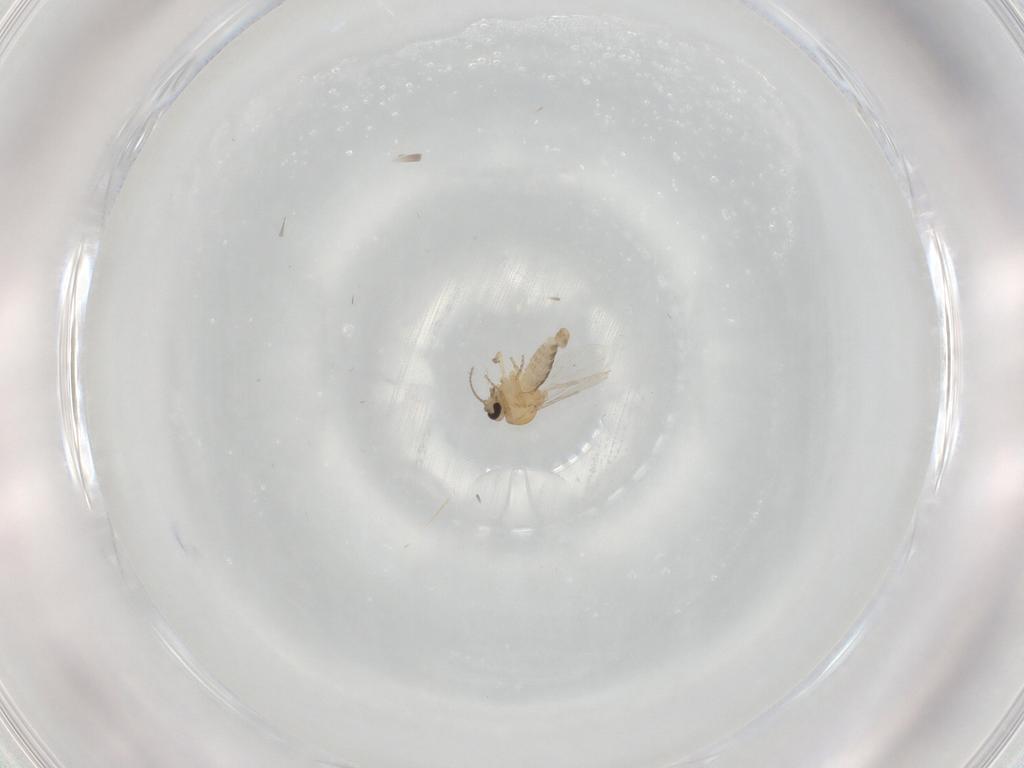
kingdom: Animalia
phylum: Arthropoda
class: Insecta
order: Diptera
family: Ceratopogonidae
